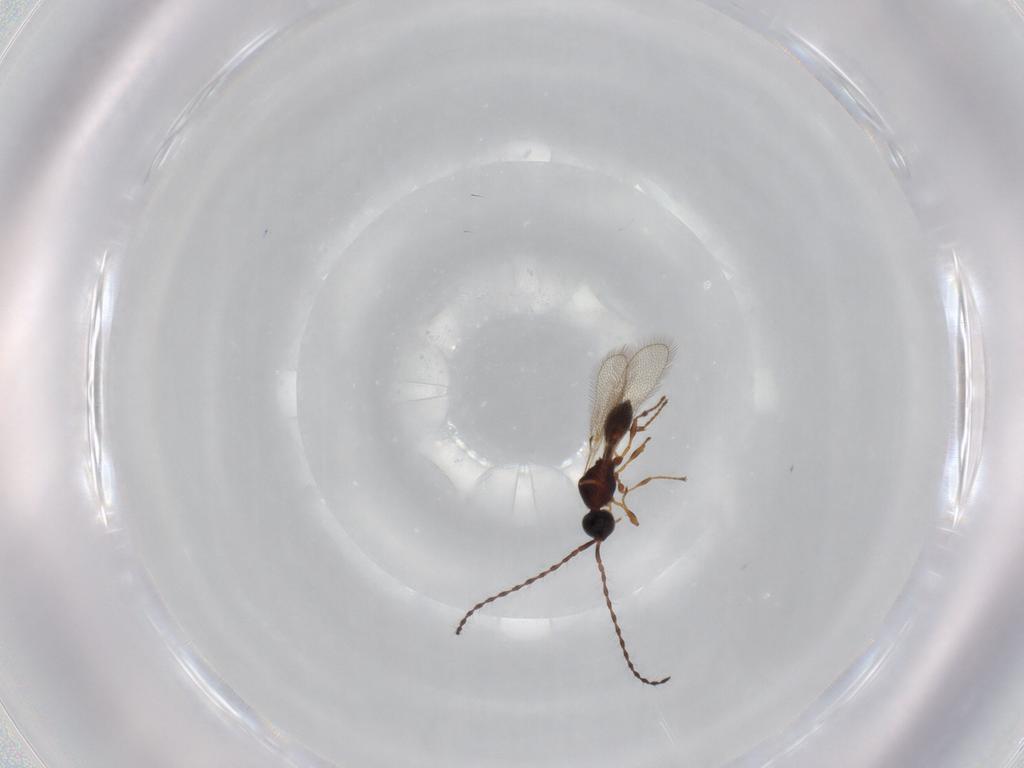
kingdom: Animalia
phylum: Arthropoda
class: Insecta
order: Hymenoptera
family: Diapriidae
